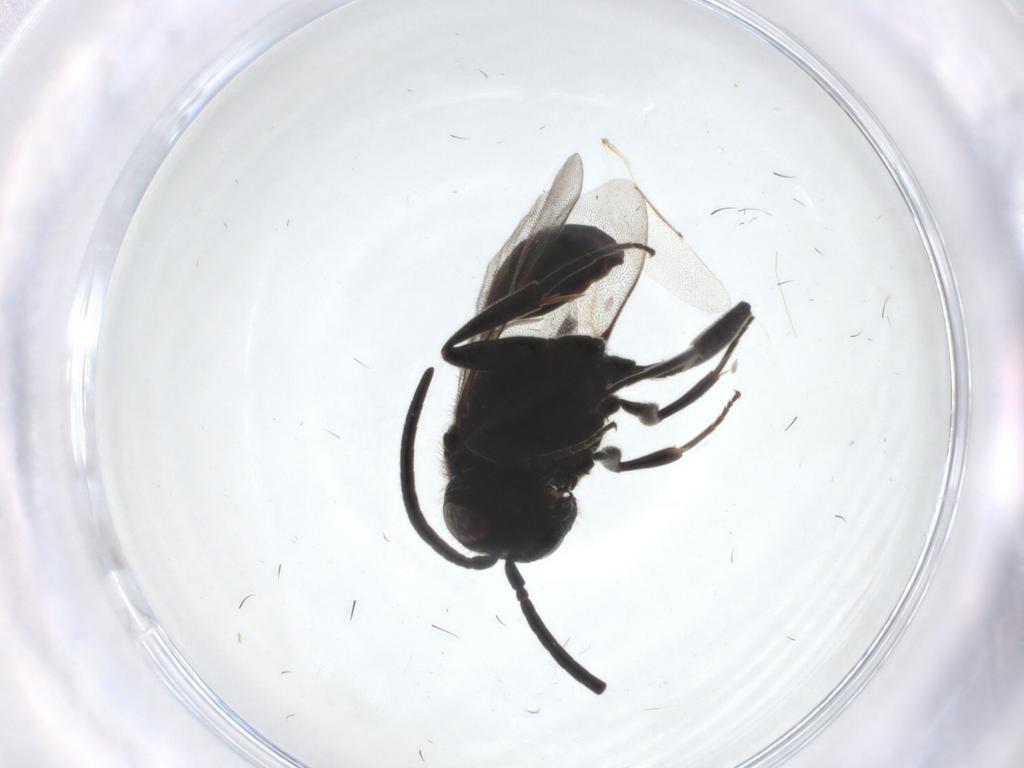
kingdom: Animalia
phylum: Arthropoda
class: Insecta
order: Hymenoptera
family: Evaniidae
